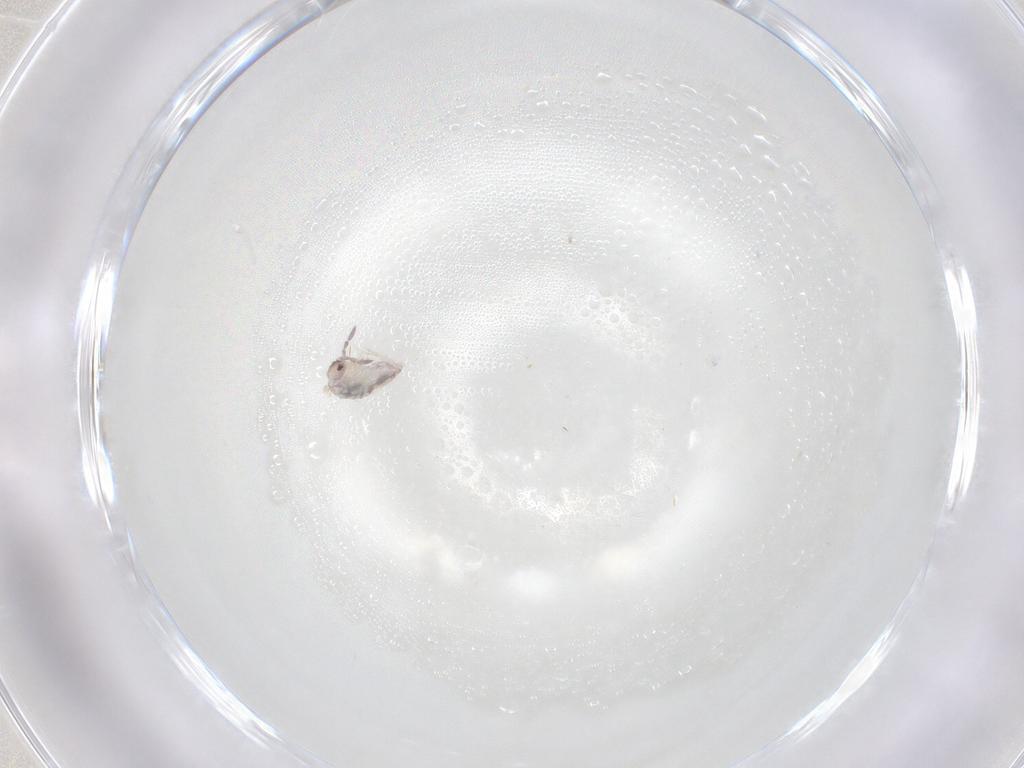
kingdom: Animalia
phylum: Arthropoda
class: Collembola
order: Entomobryomorpha
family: Entomobryidae
